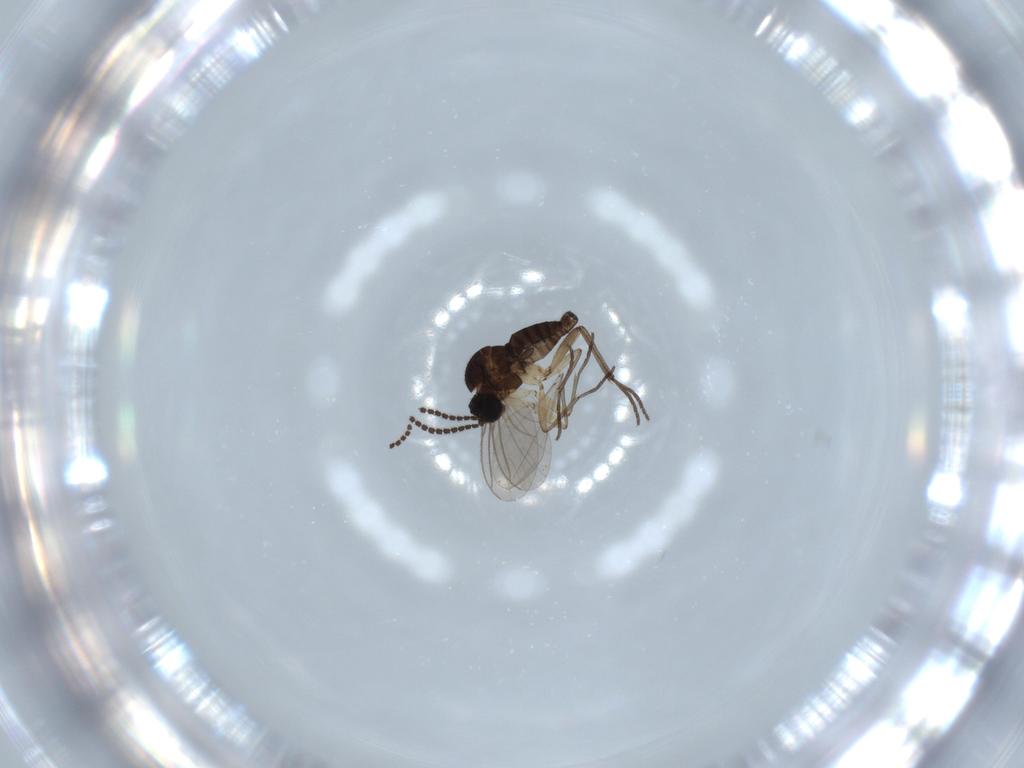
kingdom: Animalia
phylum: Arthropoda
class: Insecta
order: Diptera
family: Sciaridae
